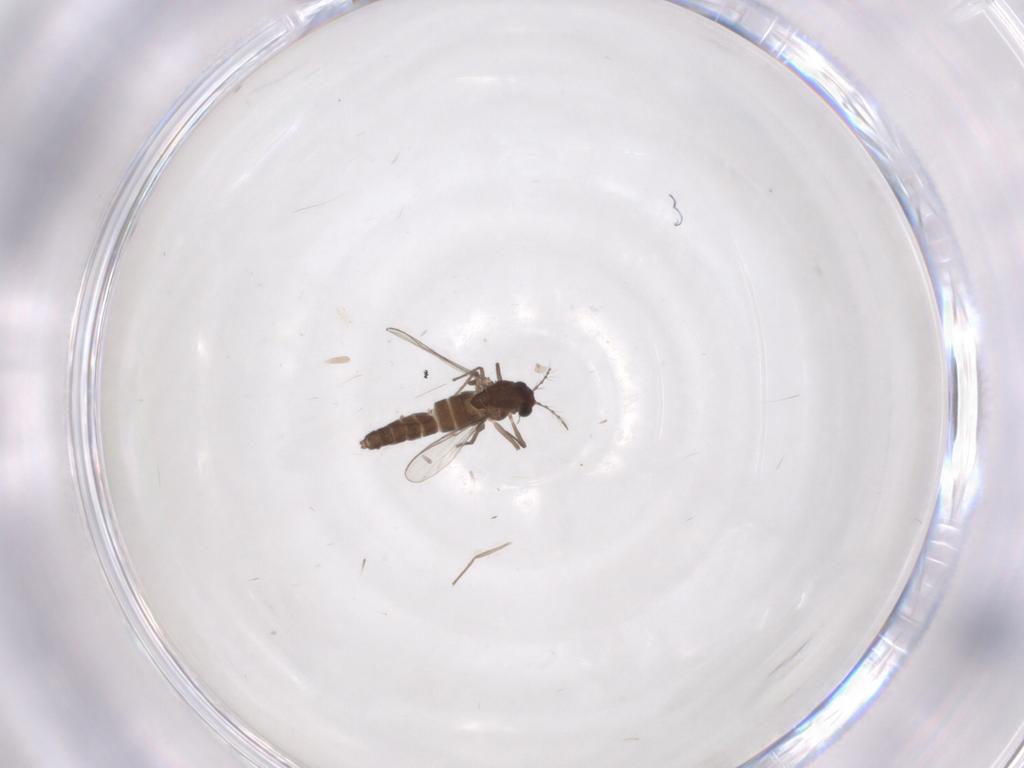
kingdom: Animalia
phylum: Arthropoda
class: Insecta
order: Diptera
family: Chironomidae
